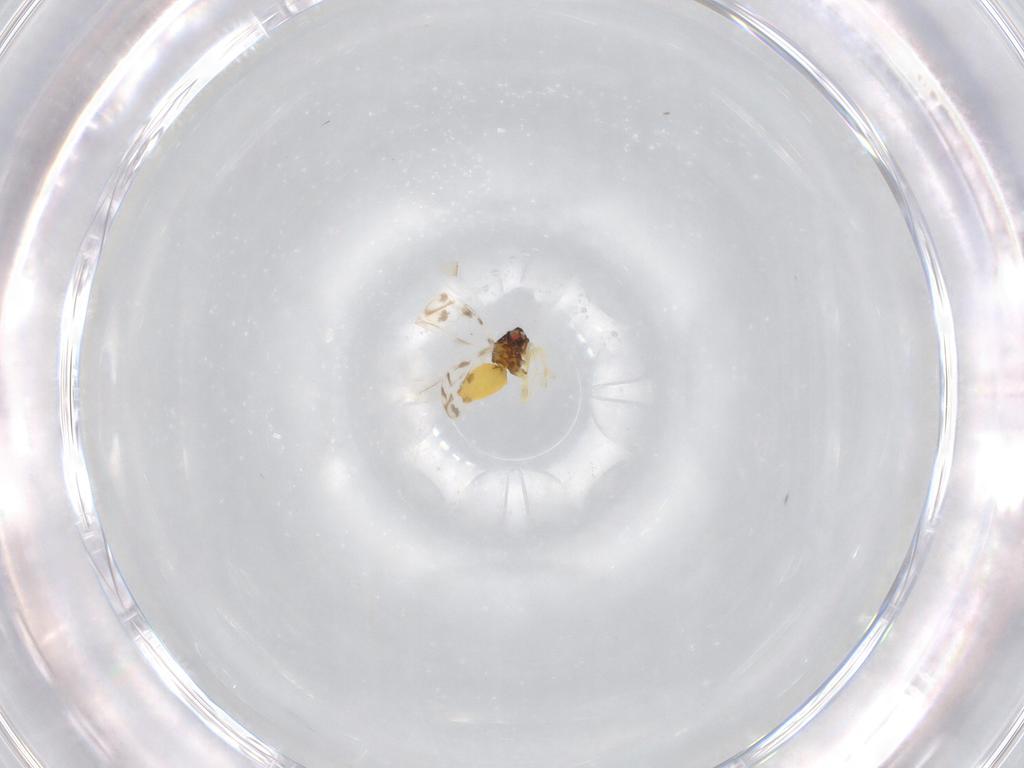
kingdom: Animalia
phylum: Arthropoda
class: Insecta
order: Hemiptera
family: Aleyrodidae
